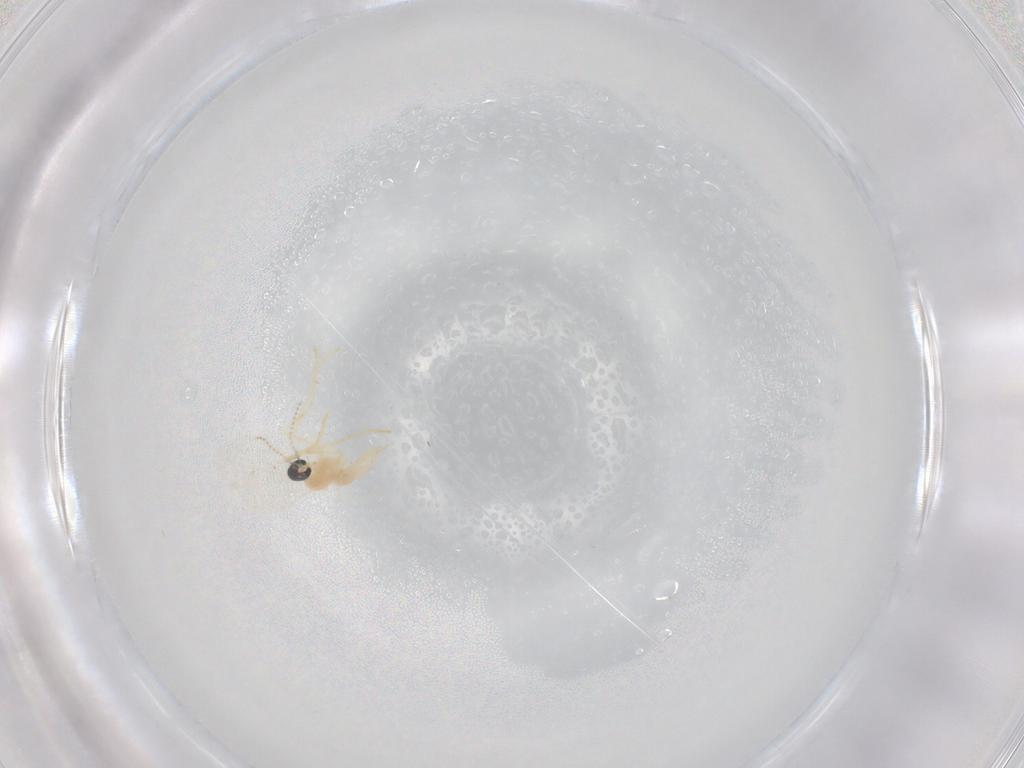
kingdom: Animalia
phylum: Arthropoda
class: Insecta
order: Diptera
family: Cecidomyiidae
